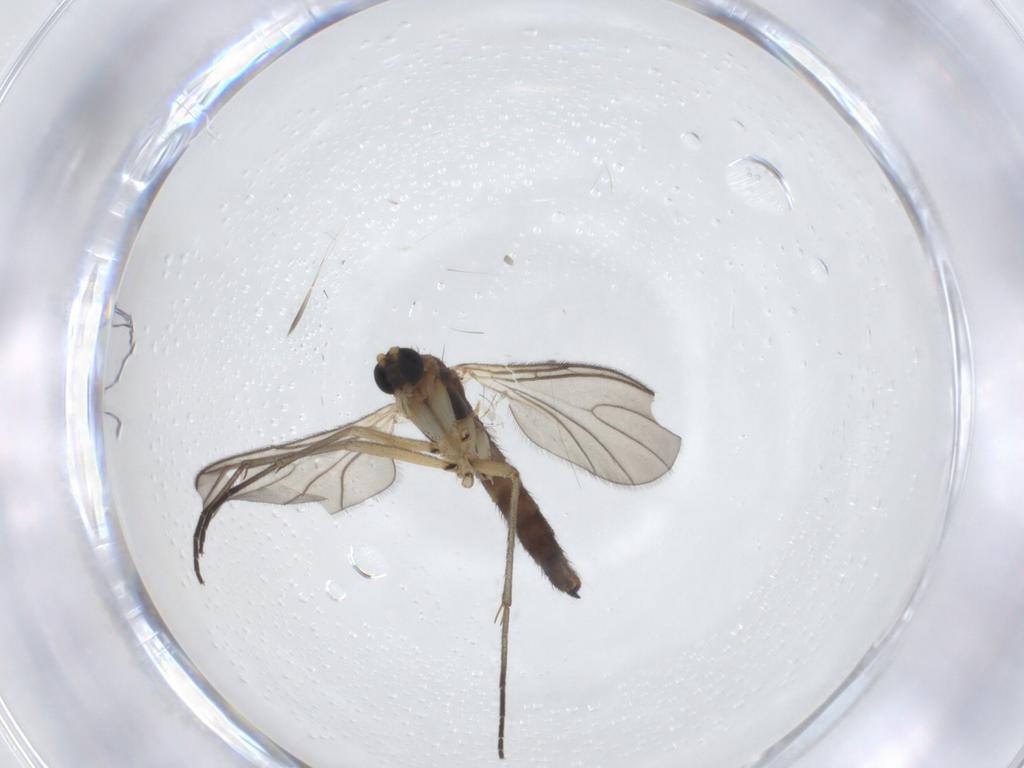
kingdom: Animalia
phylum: Arthropoda
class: Insecta
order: Diptera
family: Sciaridae
